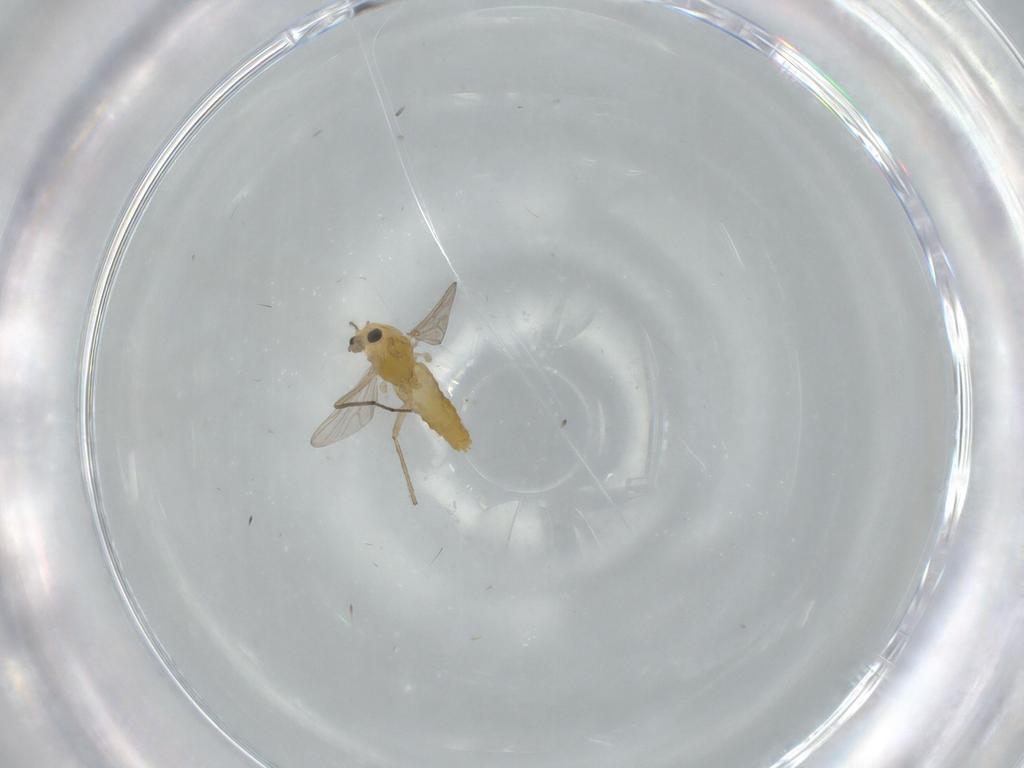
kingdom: Animalia
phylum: Arthropoda
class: Insecta
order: Diptera
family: Chironomidae
